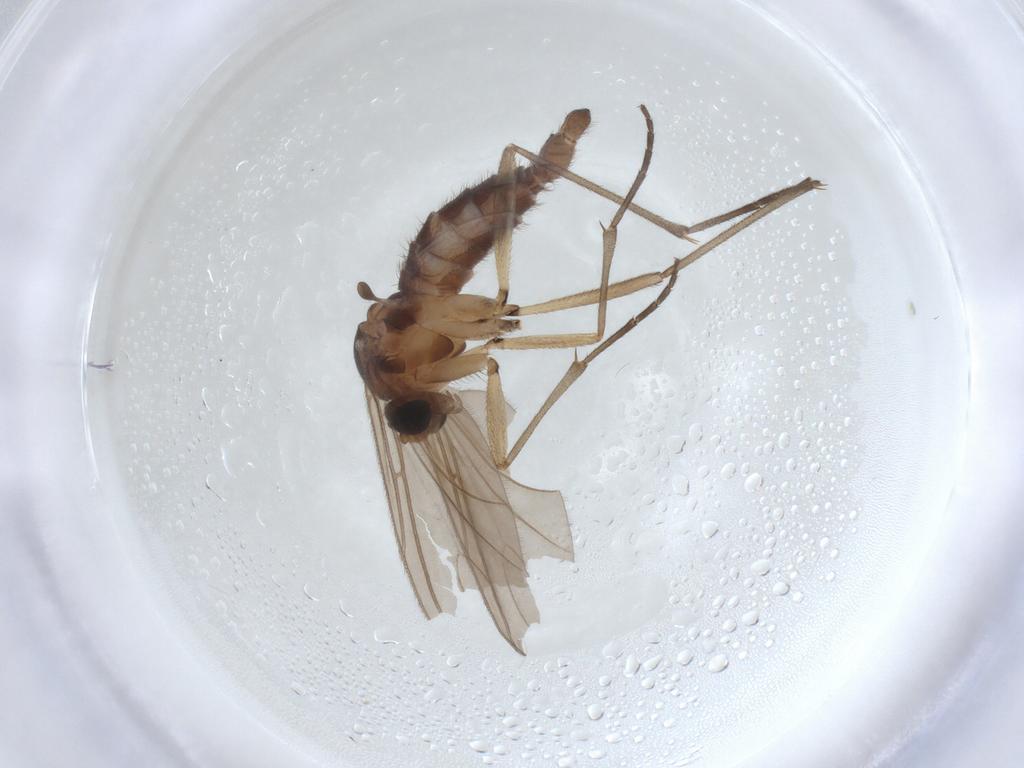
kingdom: Animalia
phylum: Arthropoda
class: Insecta
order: Diptera
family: Sciaridae
